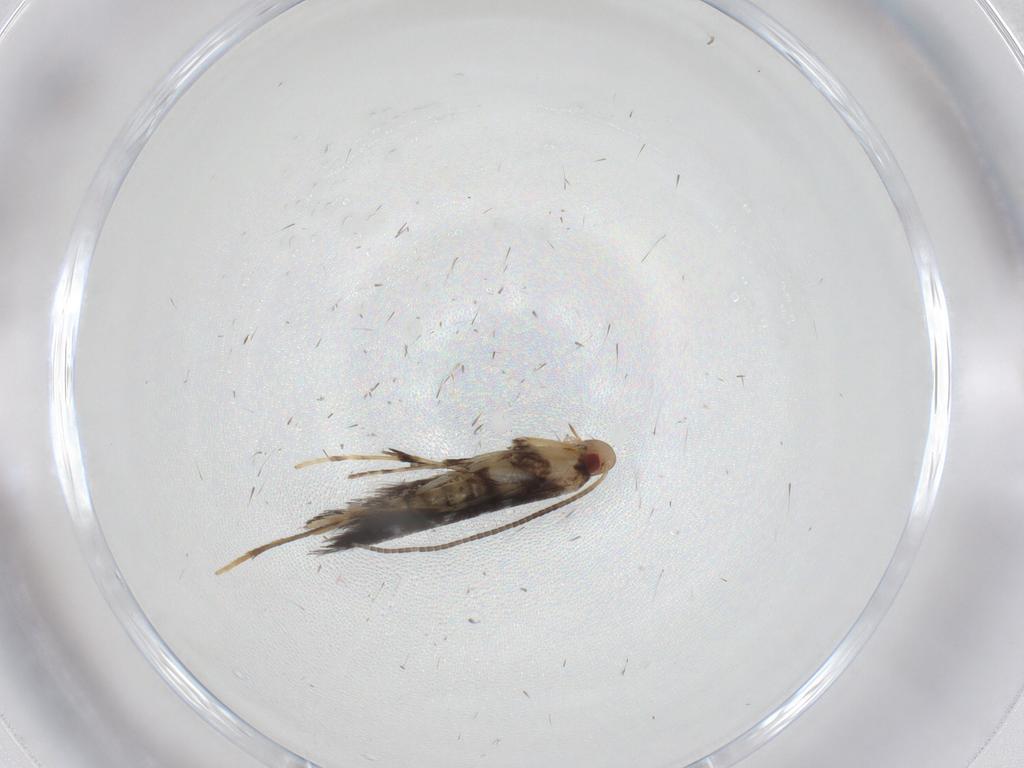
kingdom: Animalia
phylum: Arthropoda
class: Insecta
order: Lepidoptera
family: Gracillariidae
